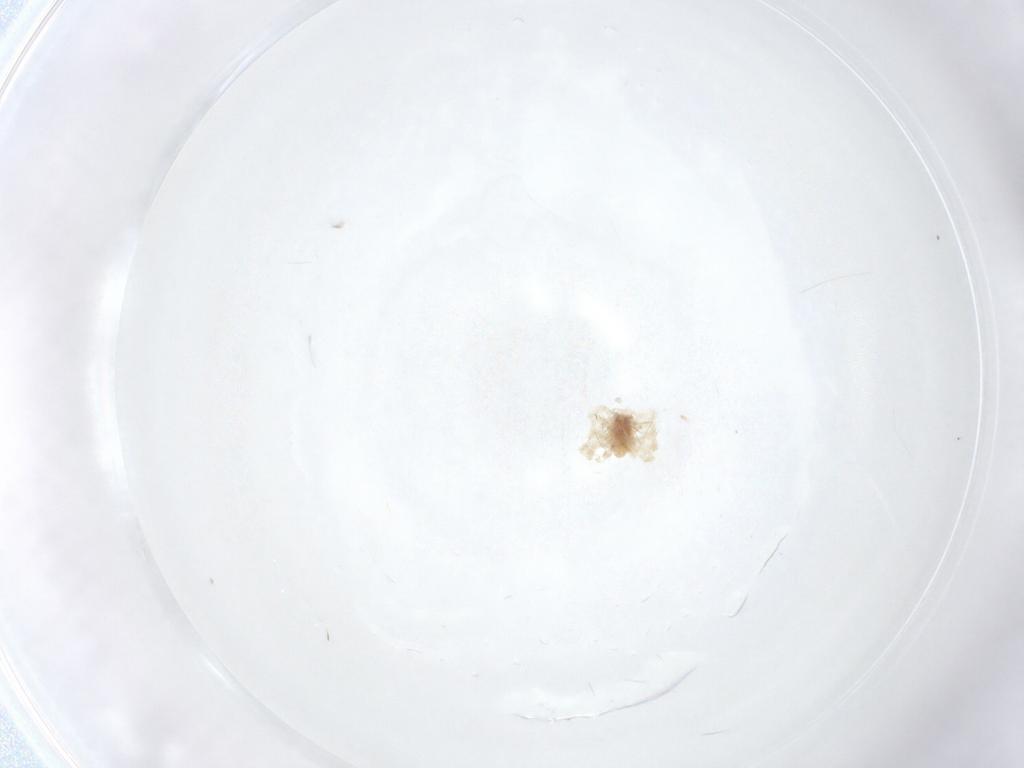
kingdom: Animalia
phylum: Arthropoda
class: Arachnida
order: Trombidiformes
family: Anystidae
